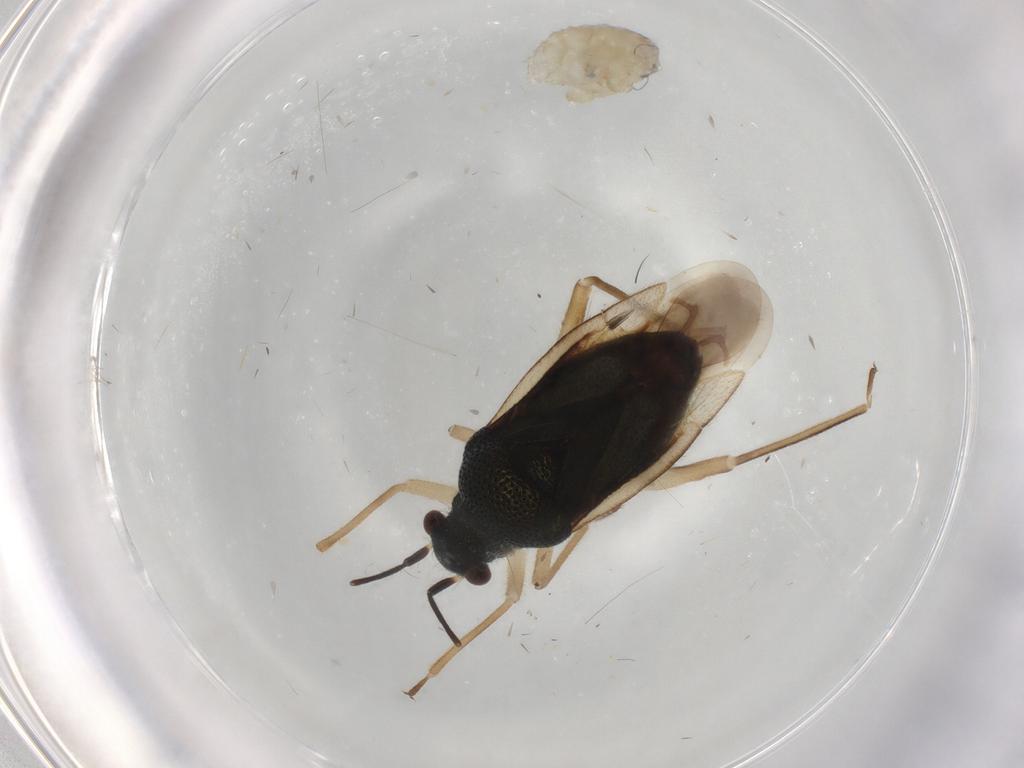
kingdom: Animalia
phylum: Arthropoda
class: Insecta
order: Hemiptera
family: Miridae
